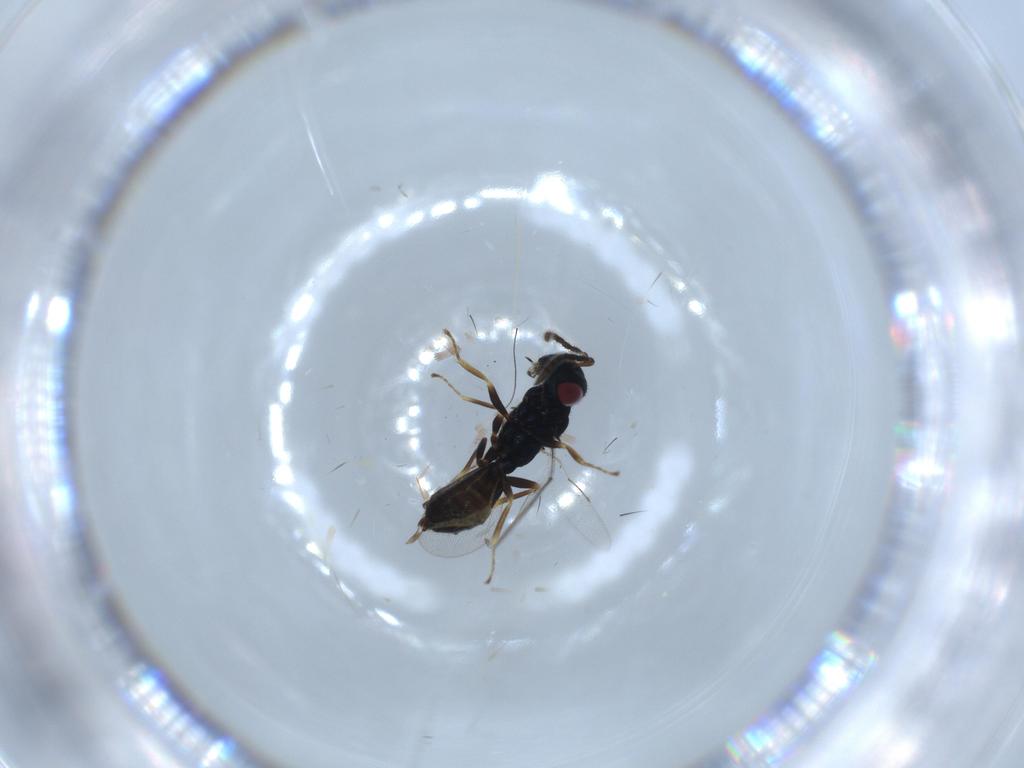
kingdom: Animalia
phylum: Arthropoda
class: Insecta
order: Hymenoptera
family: Pteromalidae
